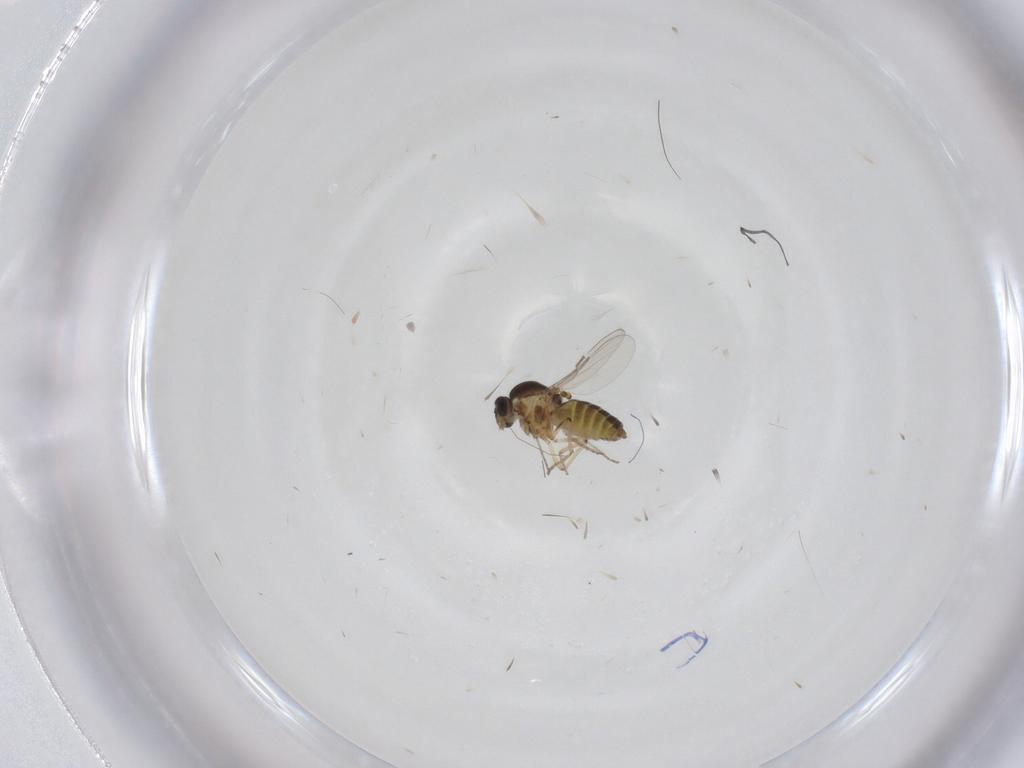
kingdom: Animalia
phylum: Arthropoda
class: Insecta
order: Diptera
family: Ceratopogonidae
